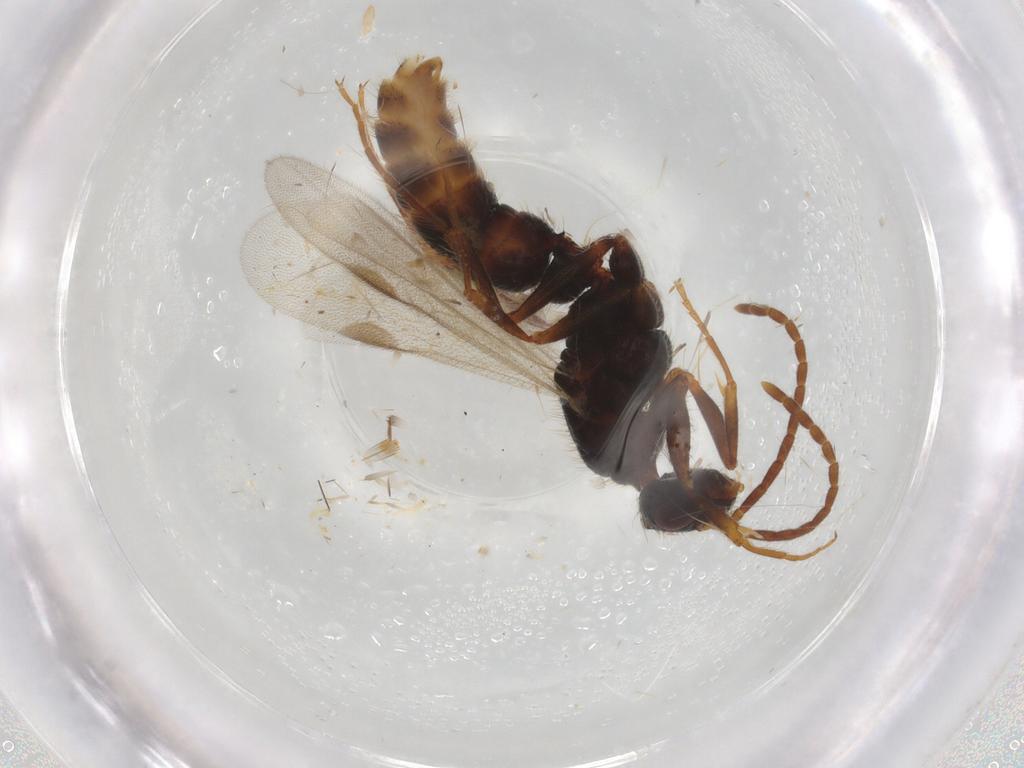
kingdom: Animalia
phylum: Arthropoda
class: Insecta
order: Hymenoptera
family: Formicidae
